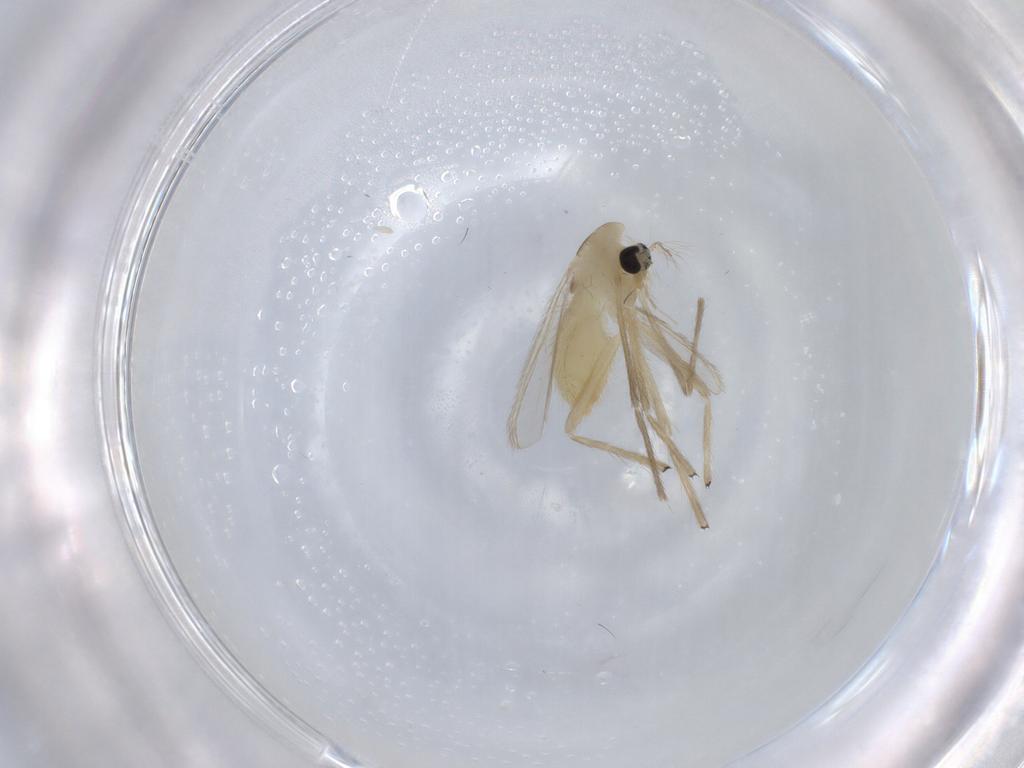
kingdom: Animalia
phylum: Arthropoda
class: Insecta
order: Diptera
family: Chironomidae
